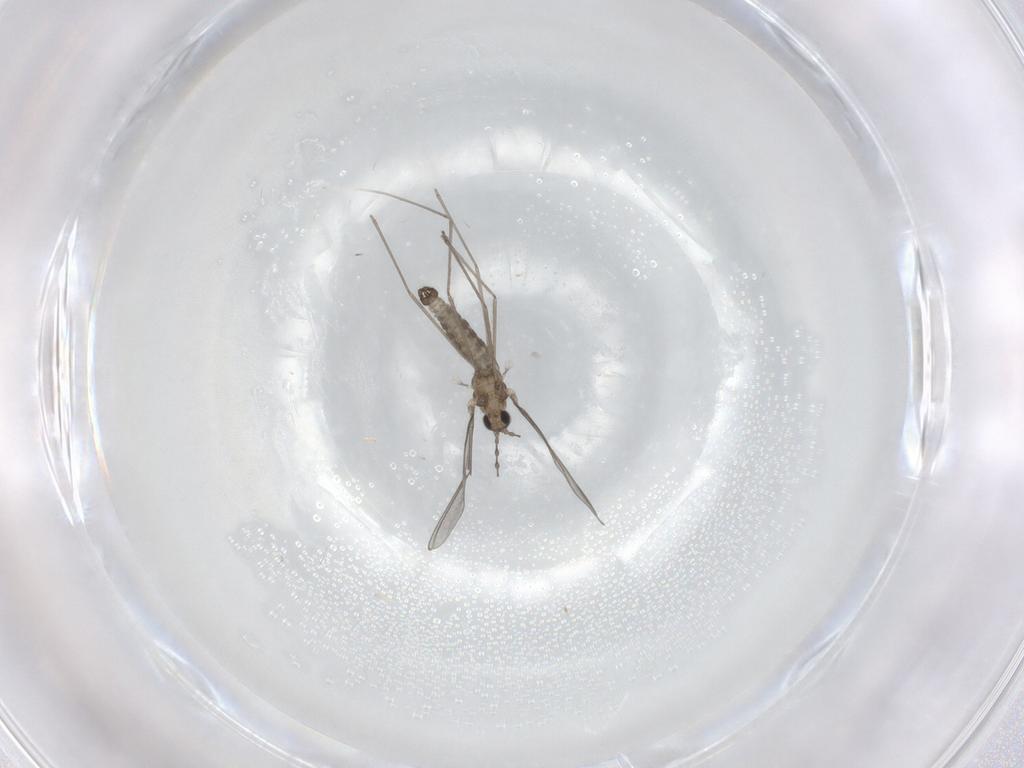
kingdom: Animalia
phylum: Arthropoda
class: Insecta
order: Diptera
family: Cecidomyiidae
